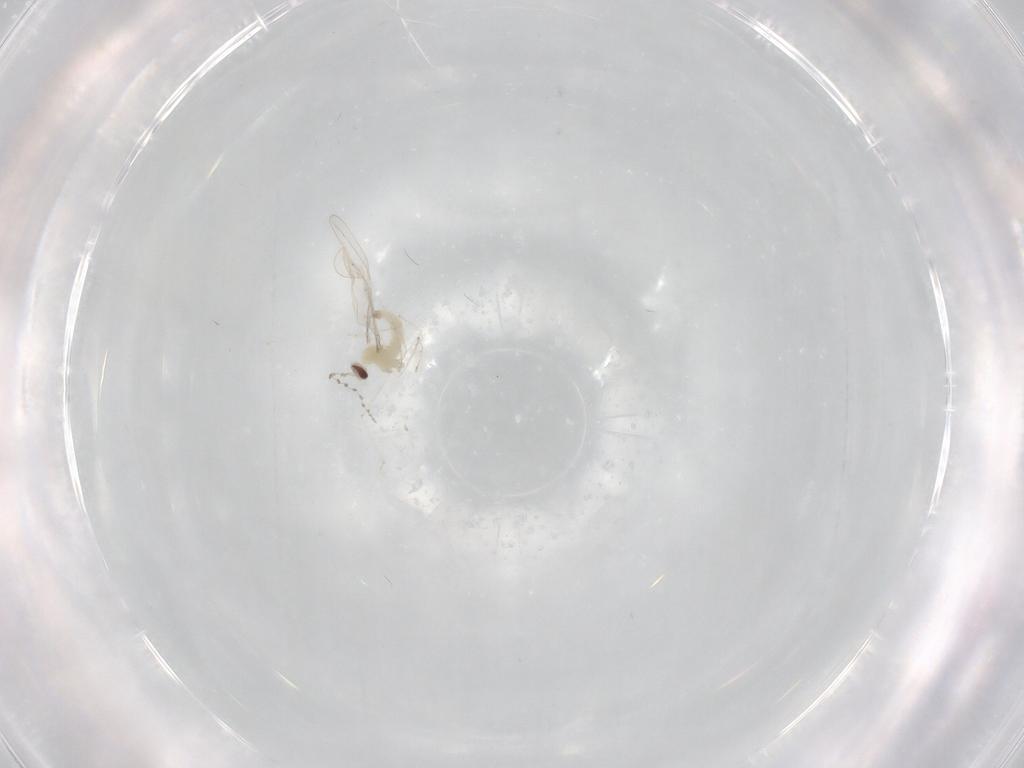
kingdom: Animalia
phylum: Arthropoda
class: Insecta
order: Diptera
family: Cecidomyiidae
